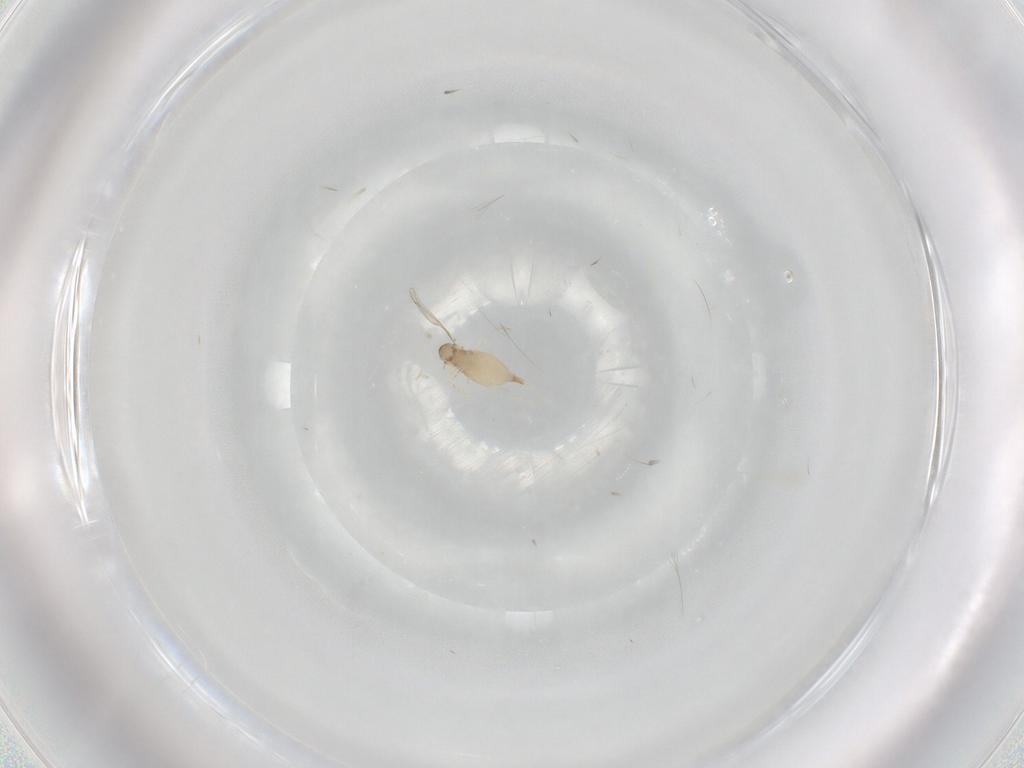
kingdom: Animalia
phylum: Arthropoda
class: Insecta
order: Diptera
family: Bombyliidae
